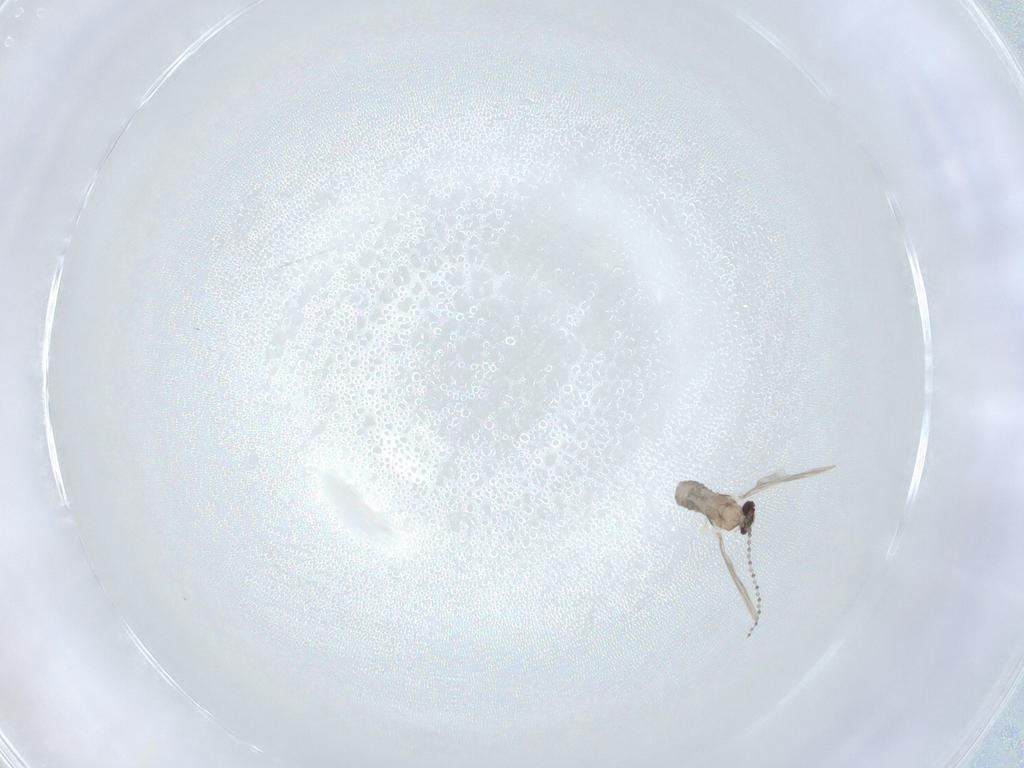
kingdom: Animalia
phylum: Arthropoda
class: Insecta
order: Diptera
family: Cecidomyiidae
